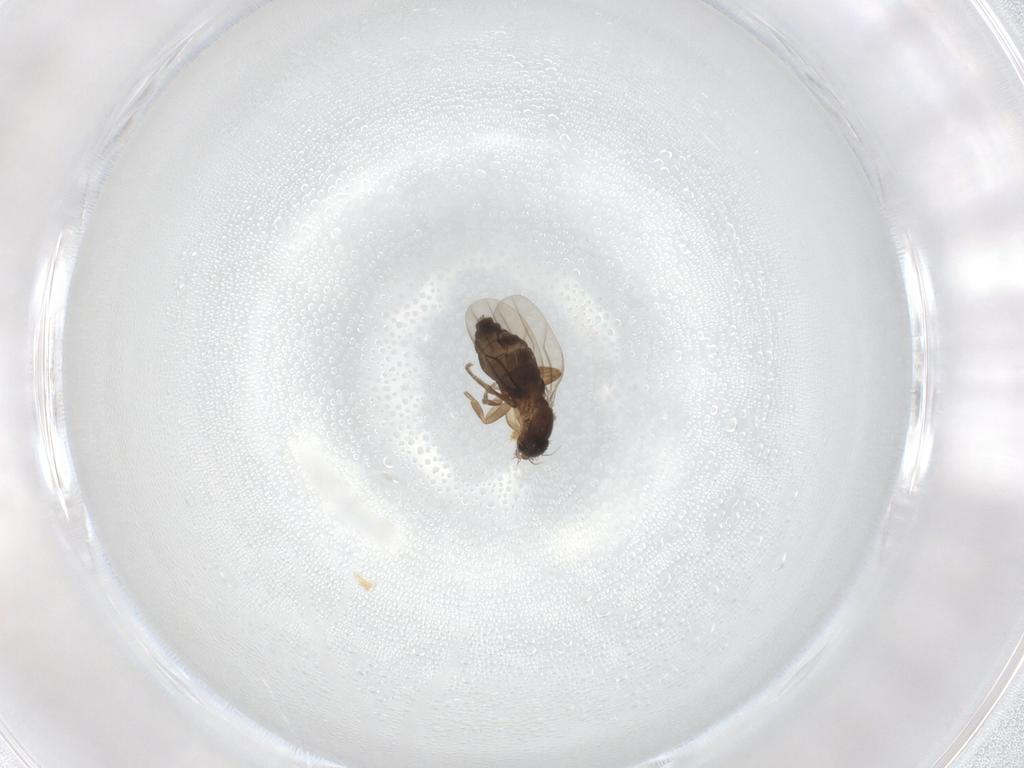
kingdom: Animalia
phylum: Arthropoda
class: Insecta
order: Diptera
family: Phoridae
